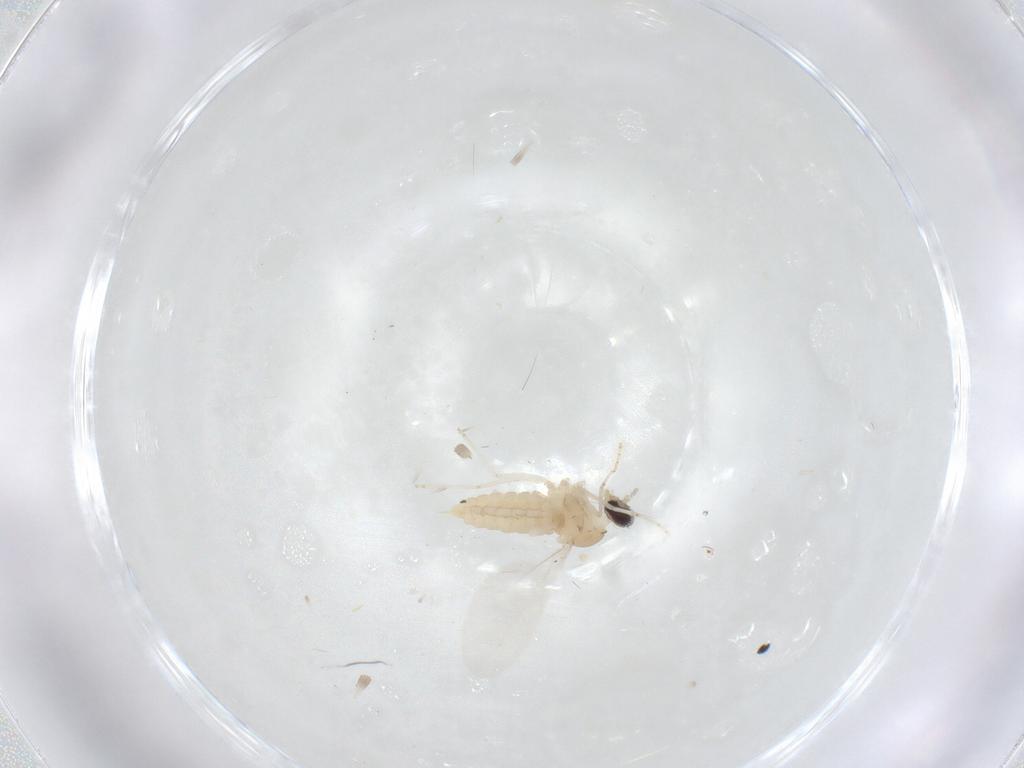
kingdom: Animalia
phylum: Arthropoda
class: Insecta
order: Diptera
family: Cecidomyiidae
